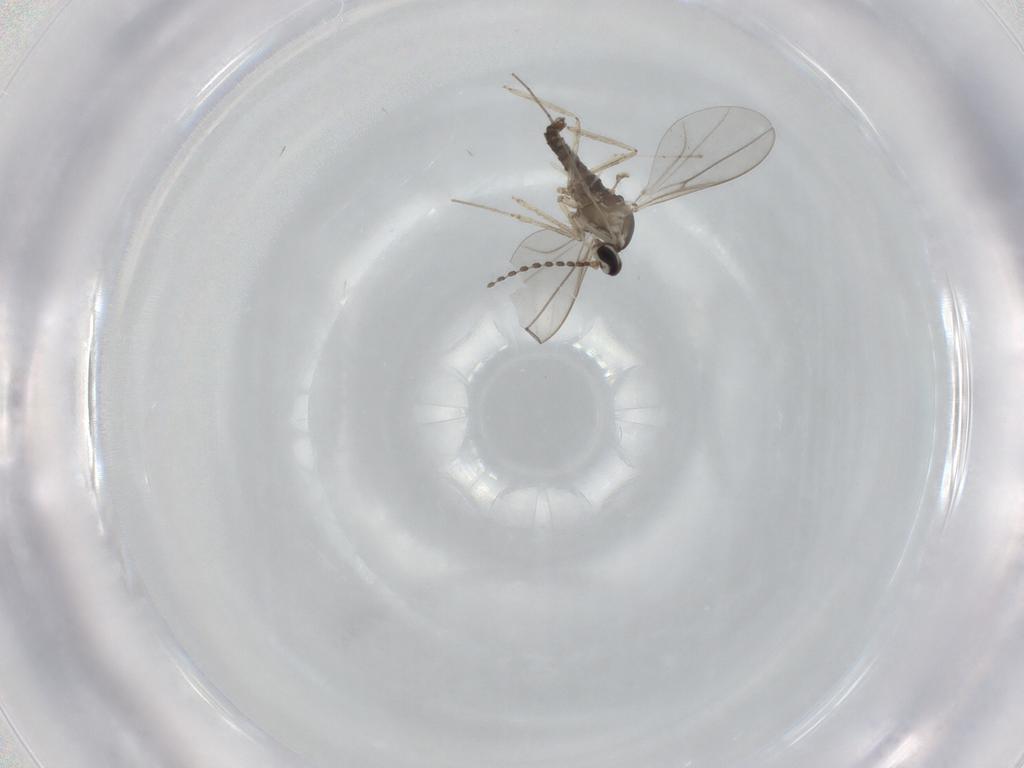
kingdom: Animalia
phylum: Arthropoda
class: Insecta
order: Diptera
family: Cecidomyiidae
